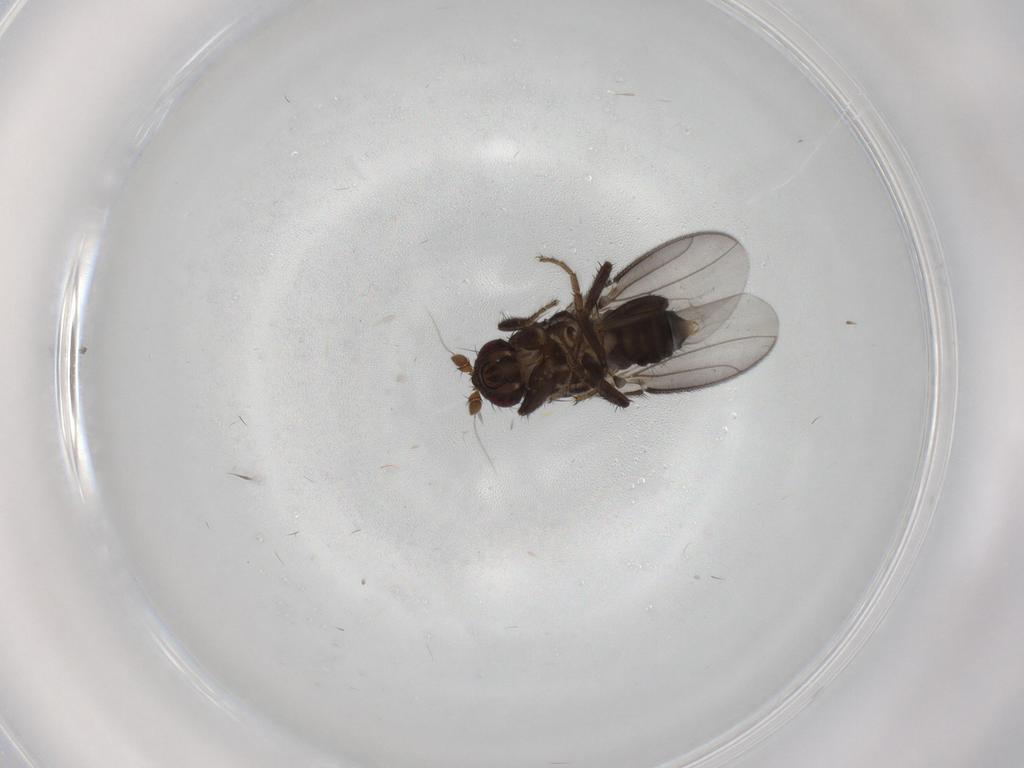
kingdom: Animalia
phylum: Arthropoda
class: Insecta
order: Diptera
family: Sphaeroceridae
